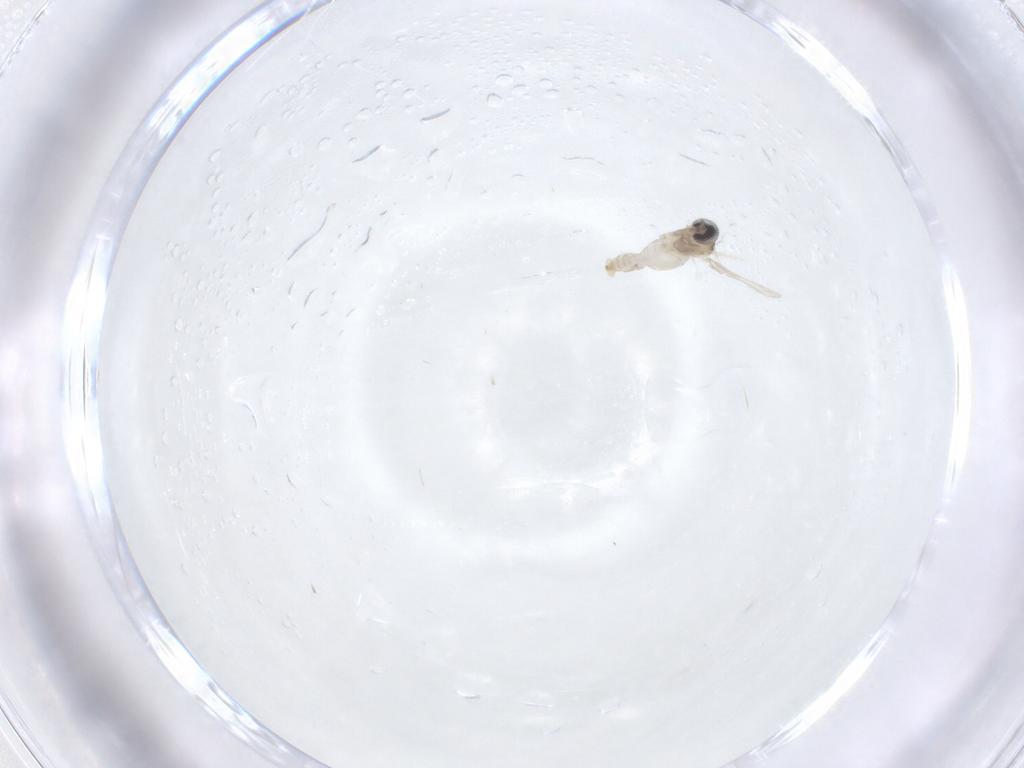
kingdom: Animalia
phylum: Arthropoda
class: Insecta
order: Diptera
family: Cecidomyiidae
